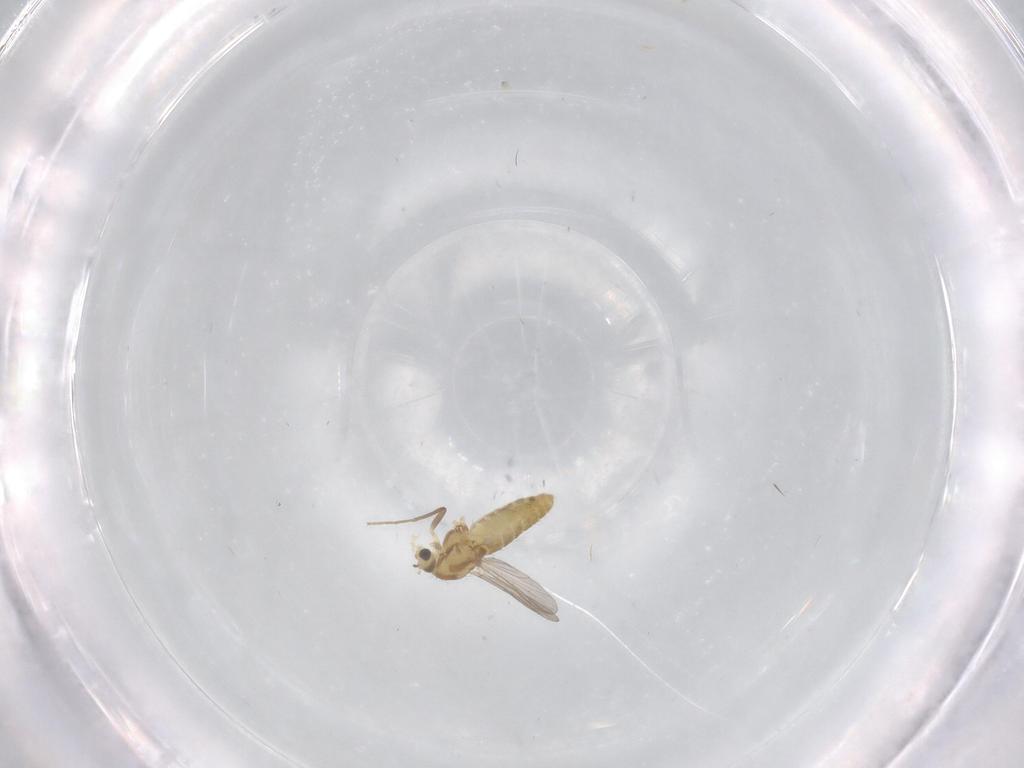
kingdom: Animalia
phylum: Arthropoda
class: Insecta
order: Diptera
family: Chironomidae
